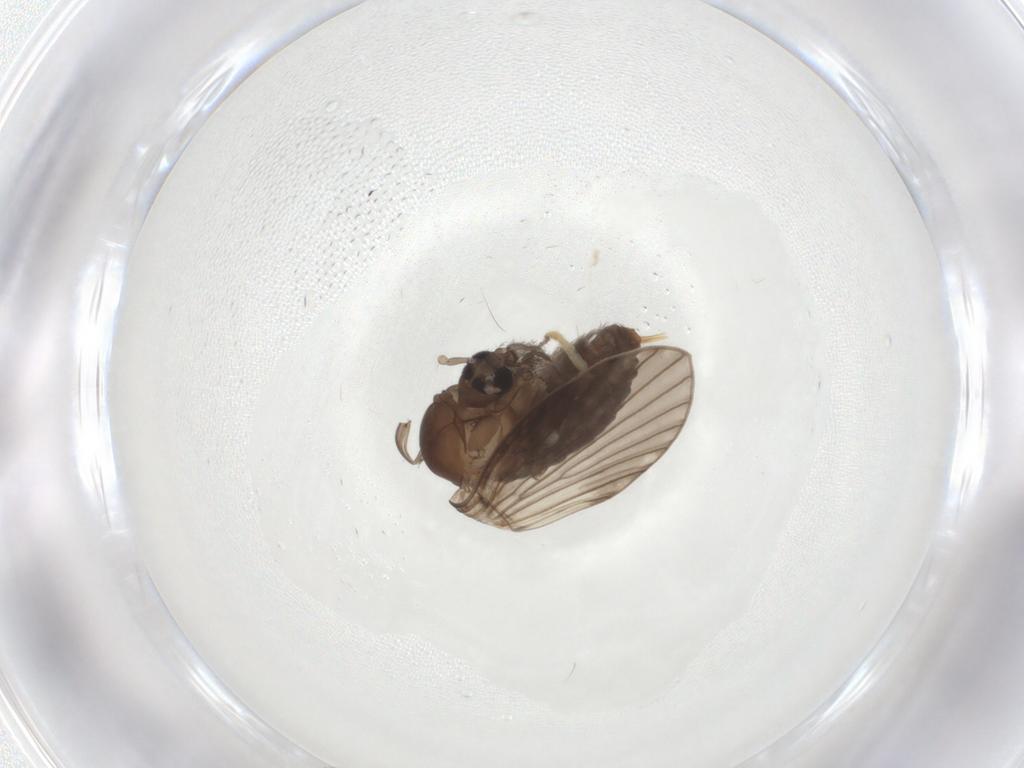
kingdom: Animalia
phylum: Arthropoda
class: Insecta
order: Diptera
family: Psychodidae
